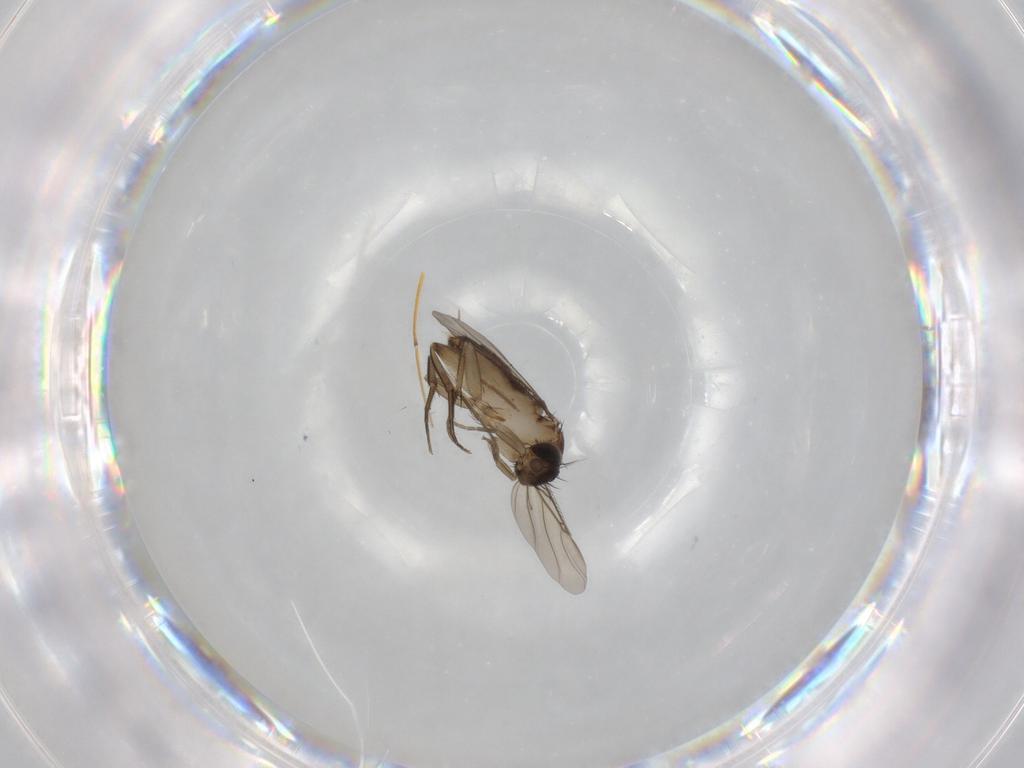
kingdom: Animalia
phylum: Arthropoda
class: Insecta
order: Diptera
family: Phoridae
